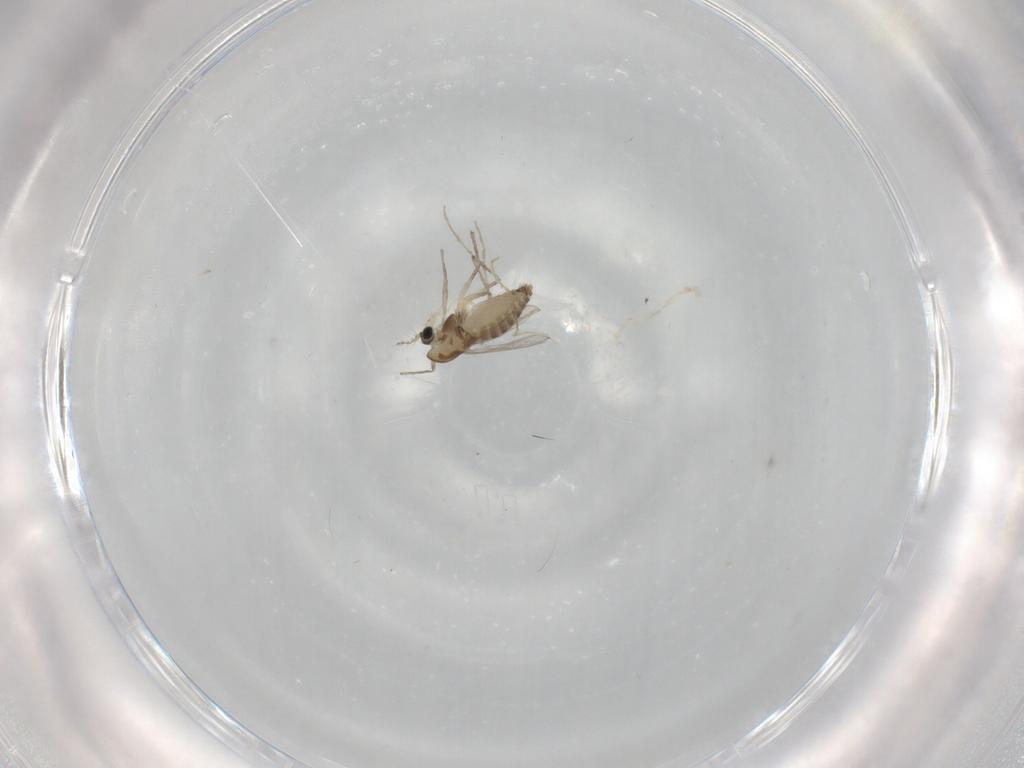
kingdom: Animalia
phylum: Arthropoda
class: Insecta
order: Diptera
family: Chironomidae
